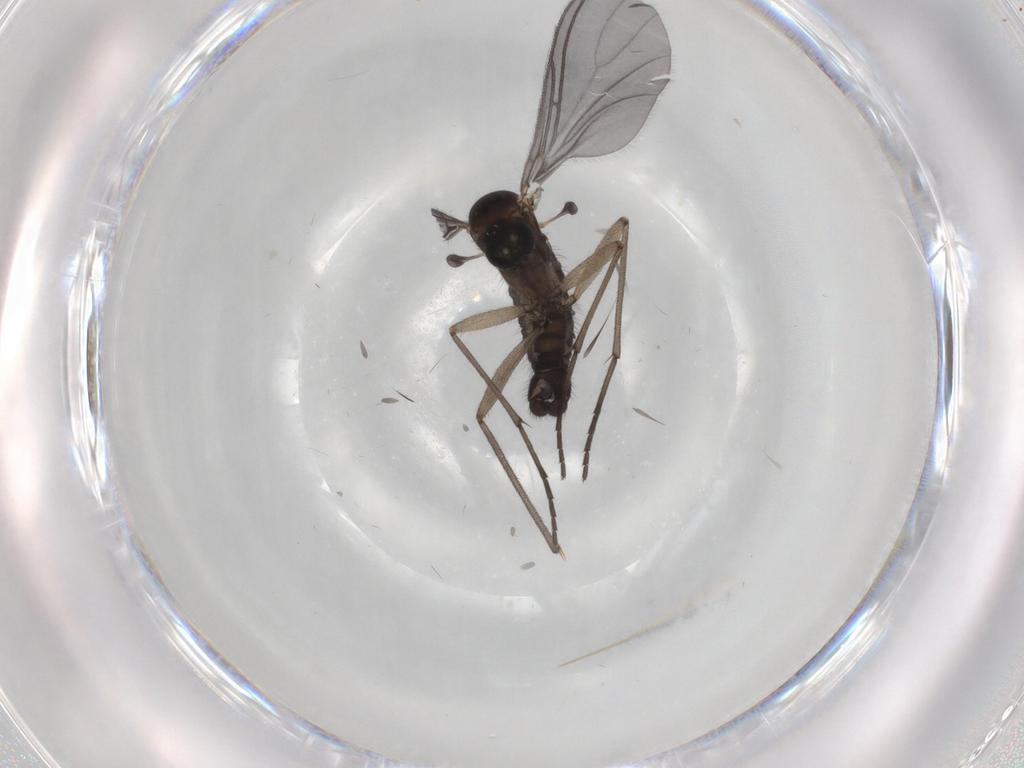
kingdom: Animalia
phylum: Arthropoda
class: Insecta
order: Diptera
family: Sciaridae
